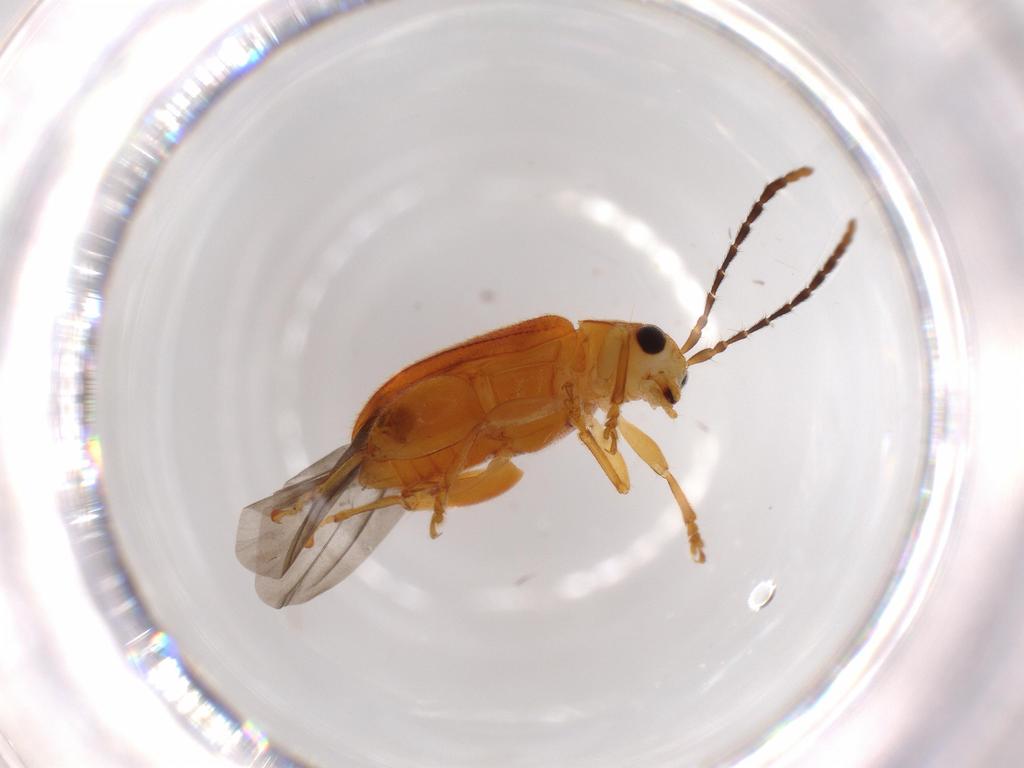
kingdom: Animalia
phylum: Arthropoda
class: Insecta
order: Coleoptera
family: Chrysomelidae
